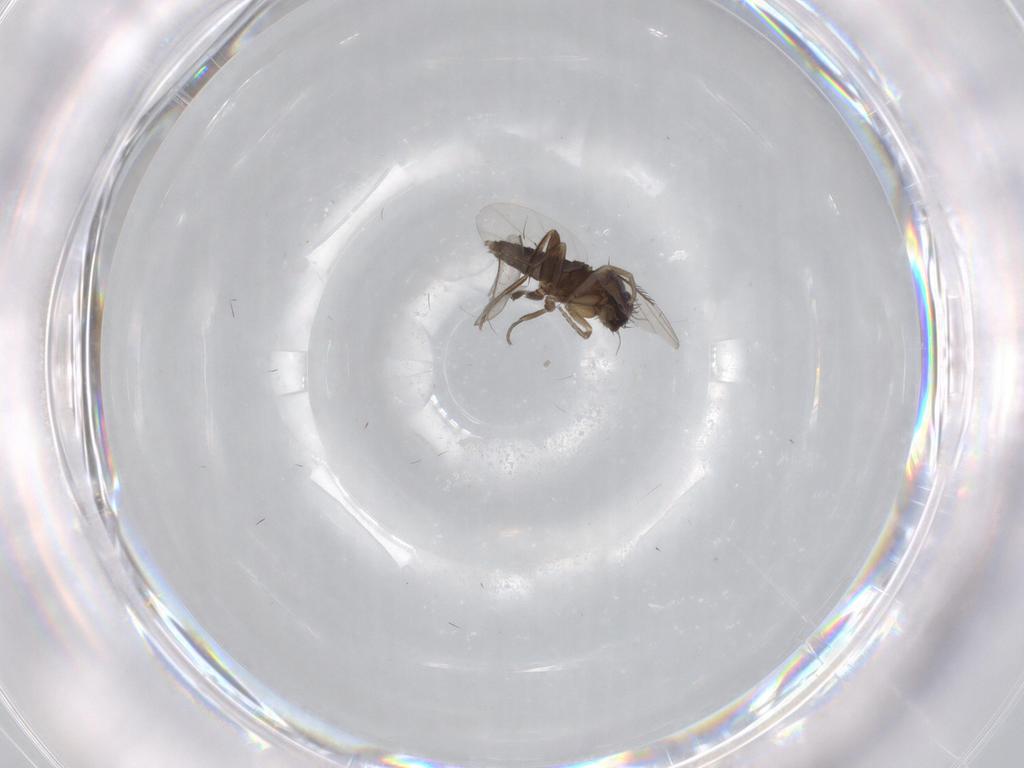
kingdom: Animalia
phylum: Arthropoda
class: Insecta
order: Diptera
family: Phoridae
